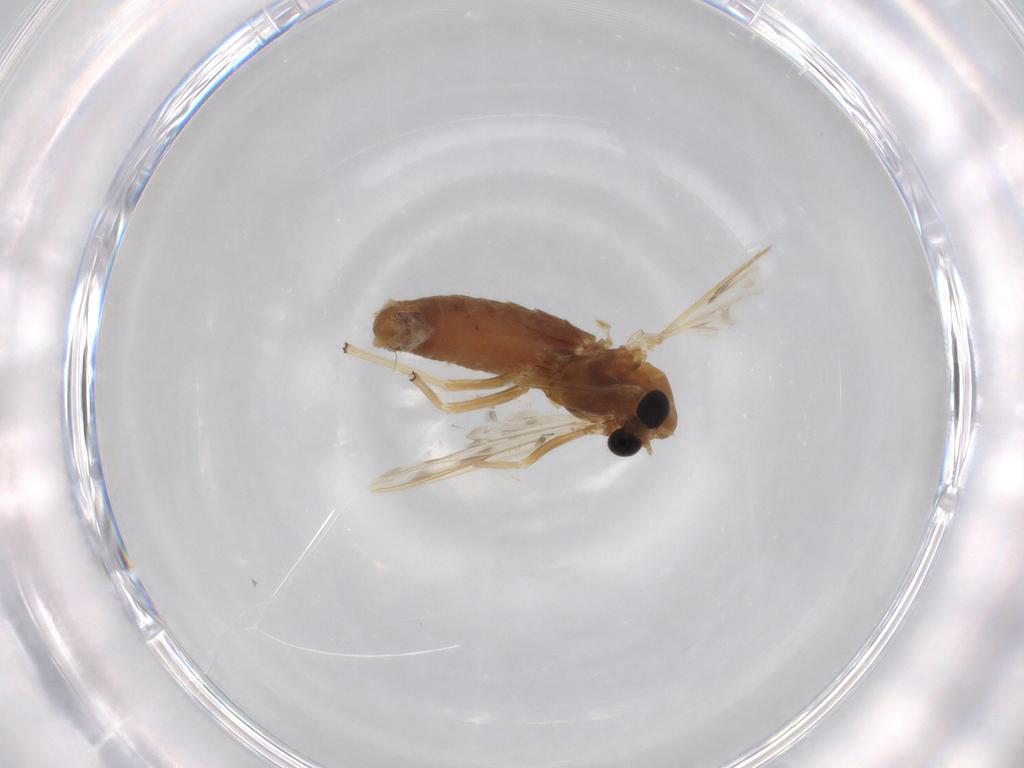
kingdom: Animalia
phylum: Arthropoda
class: Insecta
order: Diptera
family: Chironomidae
